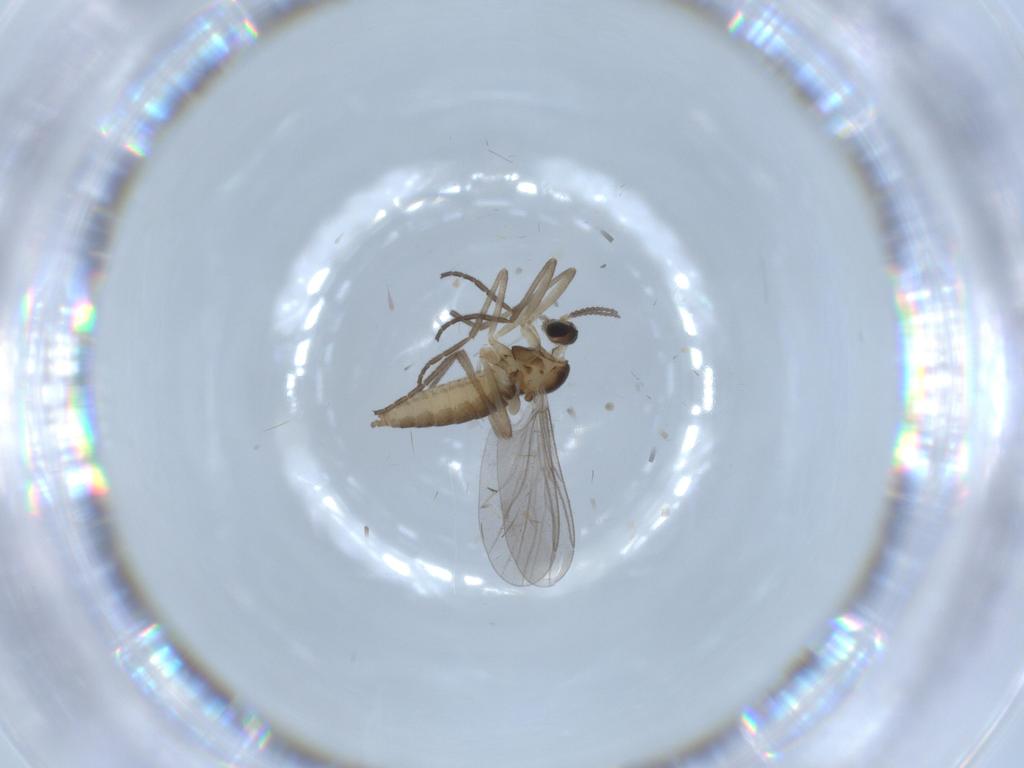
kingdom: Animalia
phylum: Arthropoda
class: Insecta
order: Diptera
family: Cecidomyiidae
